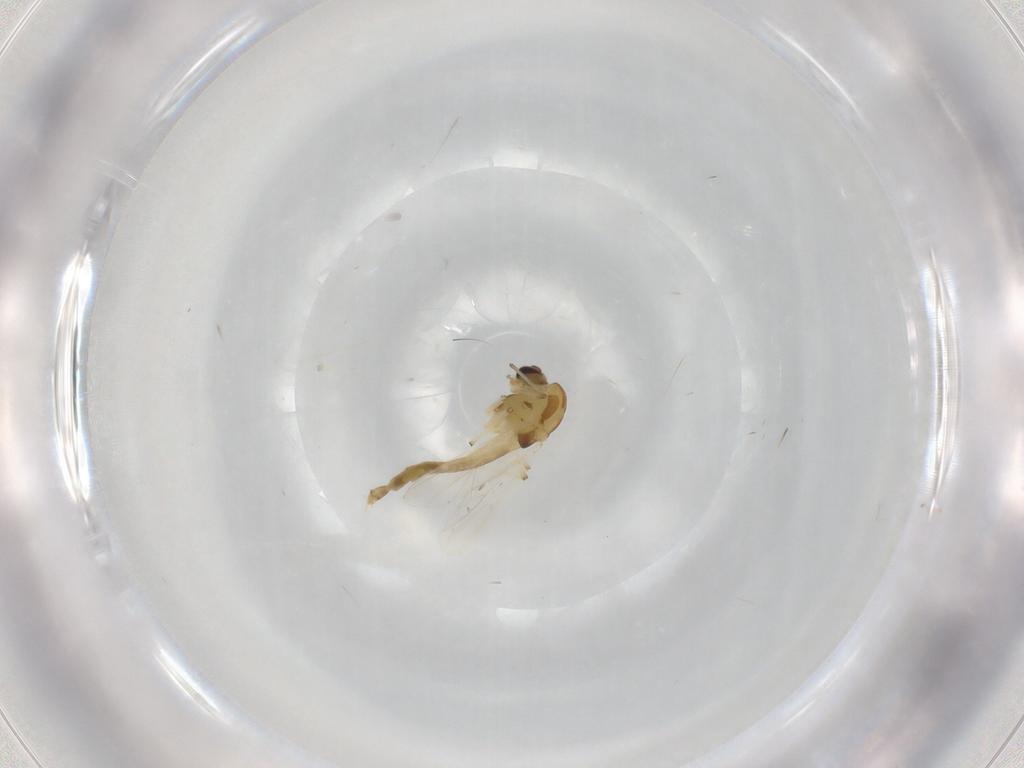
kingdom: Animalia
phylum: Arthropoda
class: Insecta
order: Diptera
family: Chironomidae
